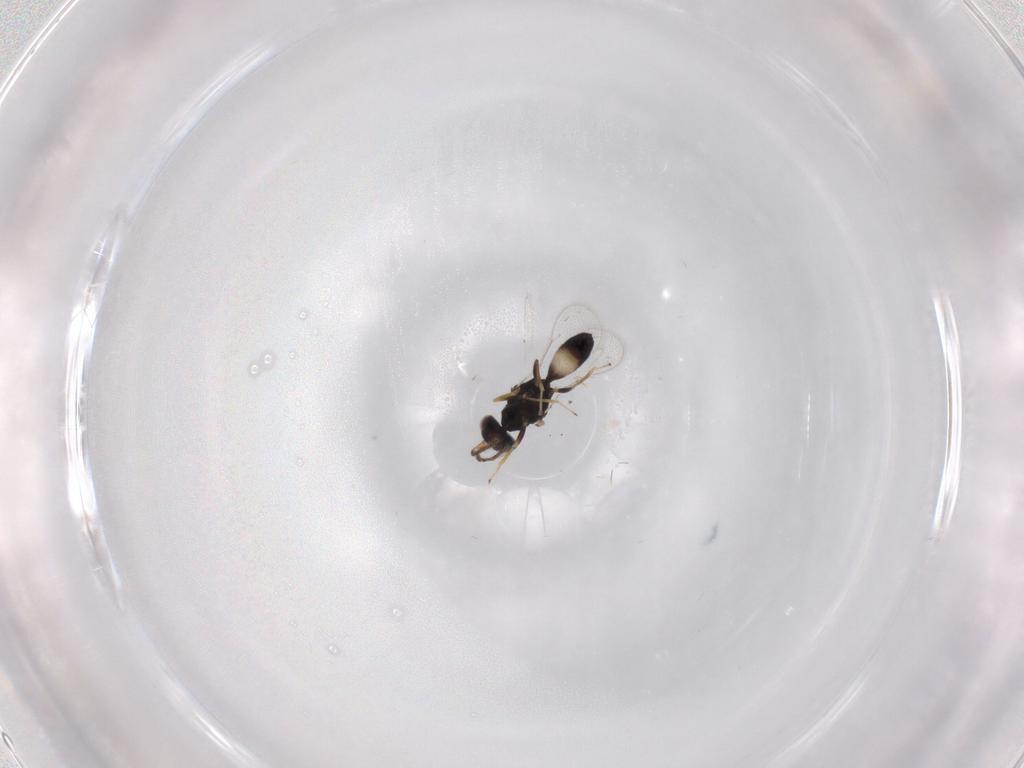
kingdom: Animalia
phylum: Arthropoda
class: Insecta
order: Hymenoptera
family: Eulophidae
